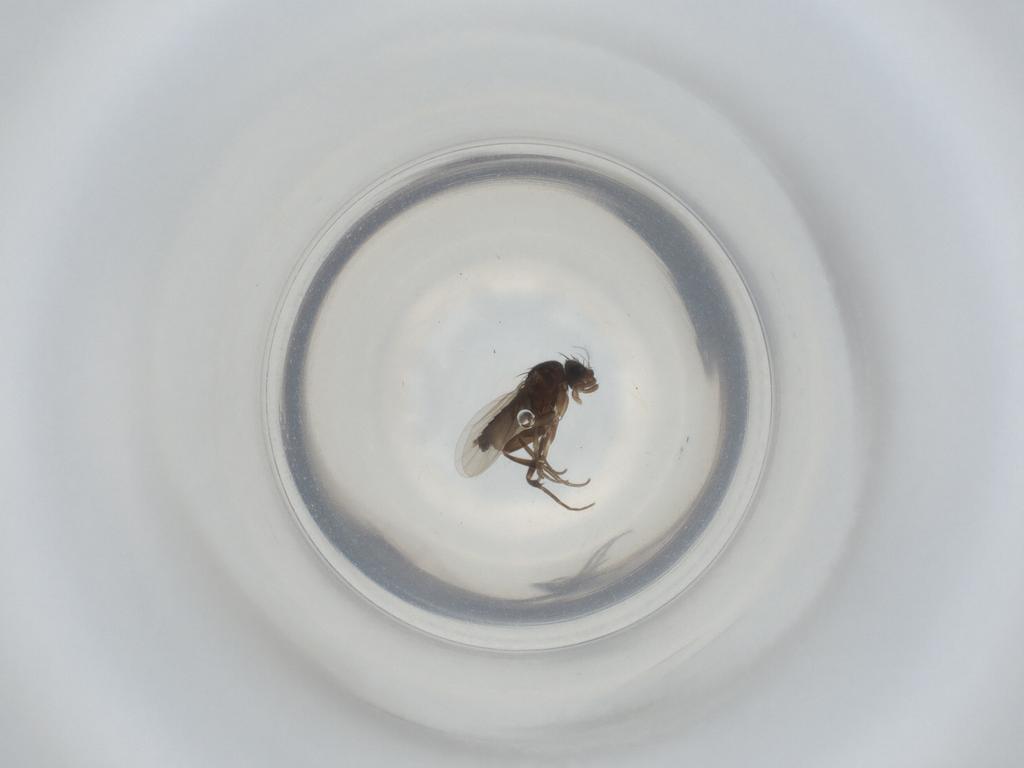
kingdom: Animalia
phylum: Arthropoda
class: Insecta
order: Diptera
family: Phoridae
